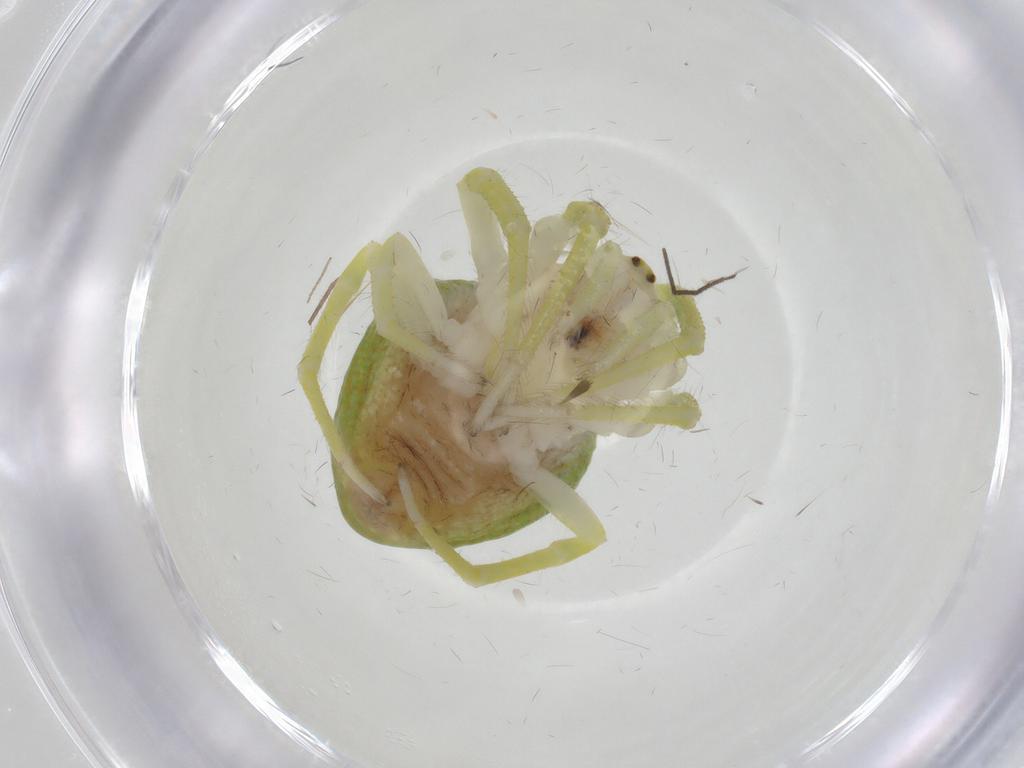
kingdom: Animalia
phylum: Arthropoda
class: Arachnida
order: Araneae
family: Araneidae
